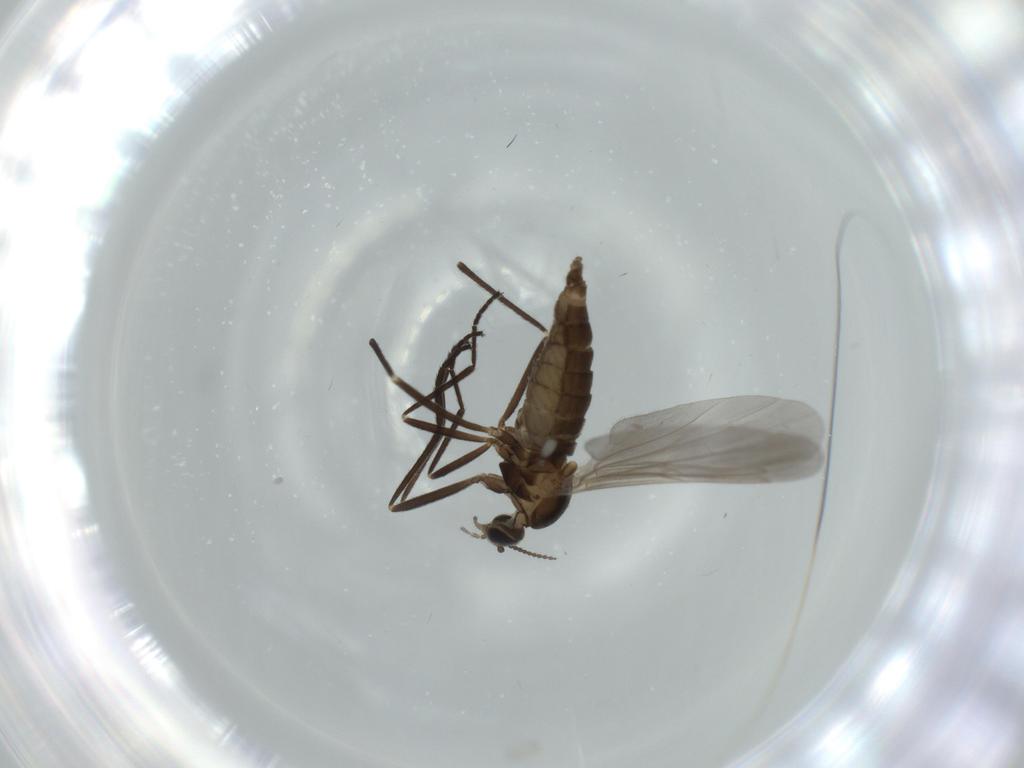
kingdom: Animalia
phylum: Arthropoda
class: Insecta
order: Diptera
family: Cecidomyiidae
